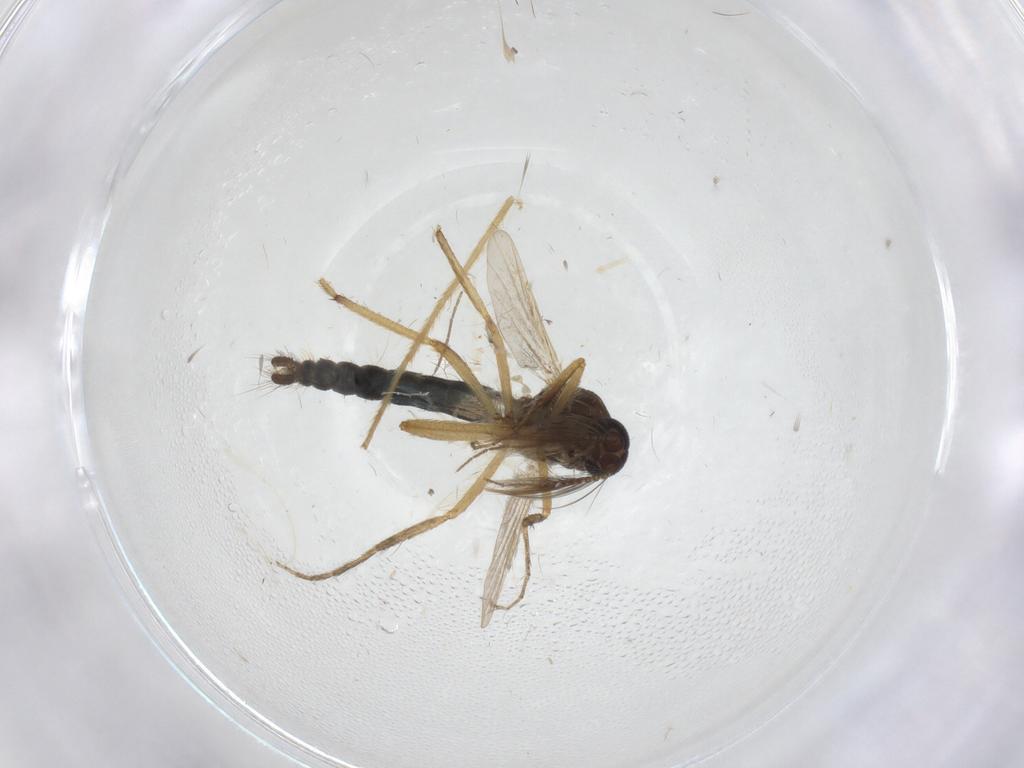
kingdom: Animalia
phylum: Arthropoda
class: Insecta
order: Diptera
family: Ceratopogonidae
